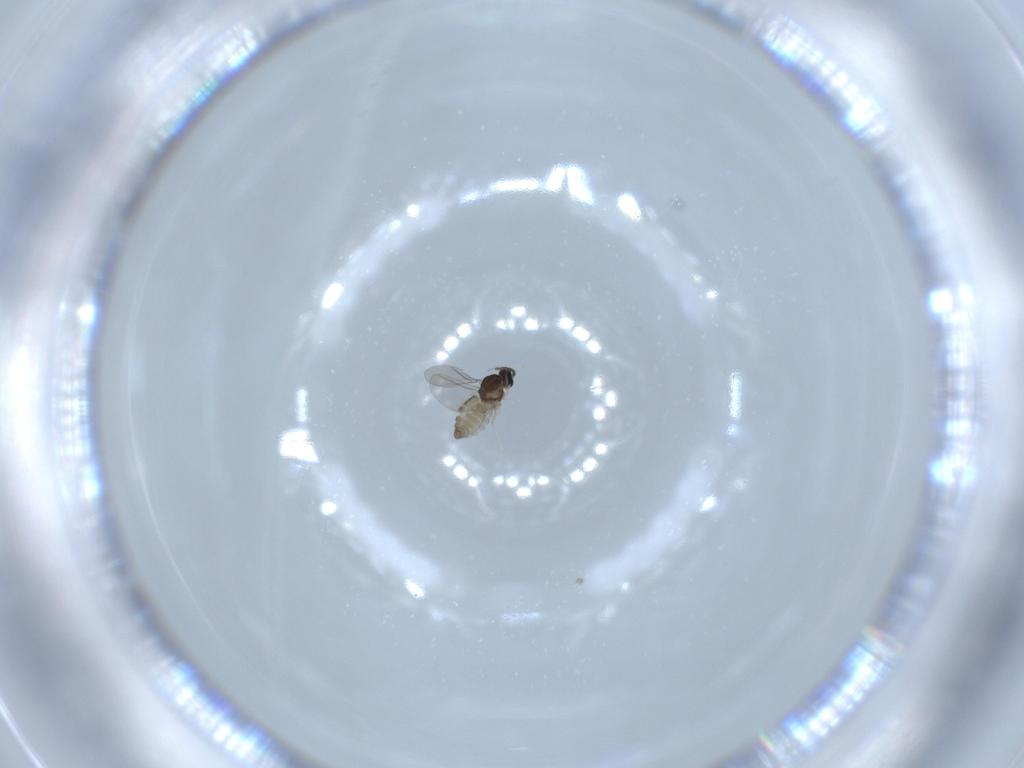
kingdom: Animalia
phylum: Arthropoda
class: Insecta
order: Diptera
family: Cecidomyiidae
